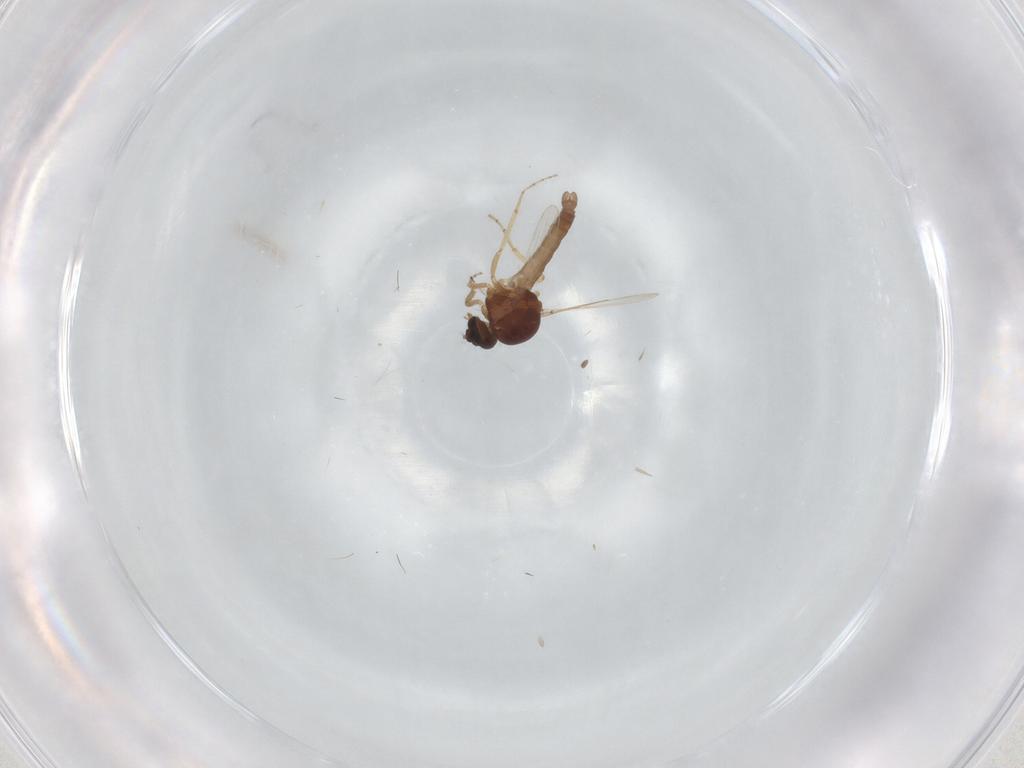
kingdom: Animalia
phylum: Arthropoda
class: Insecta
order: Diptera
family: Ceratopogonidae
